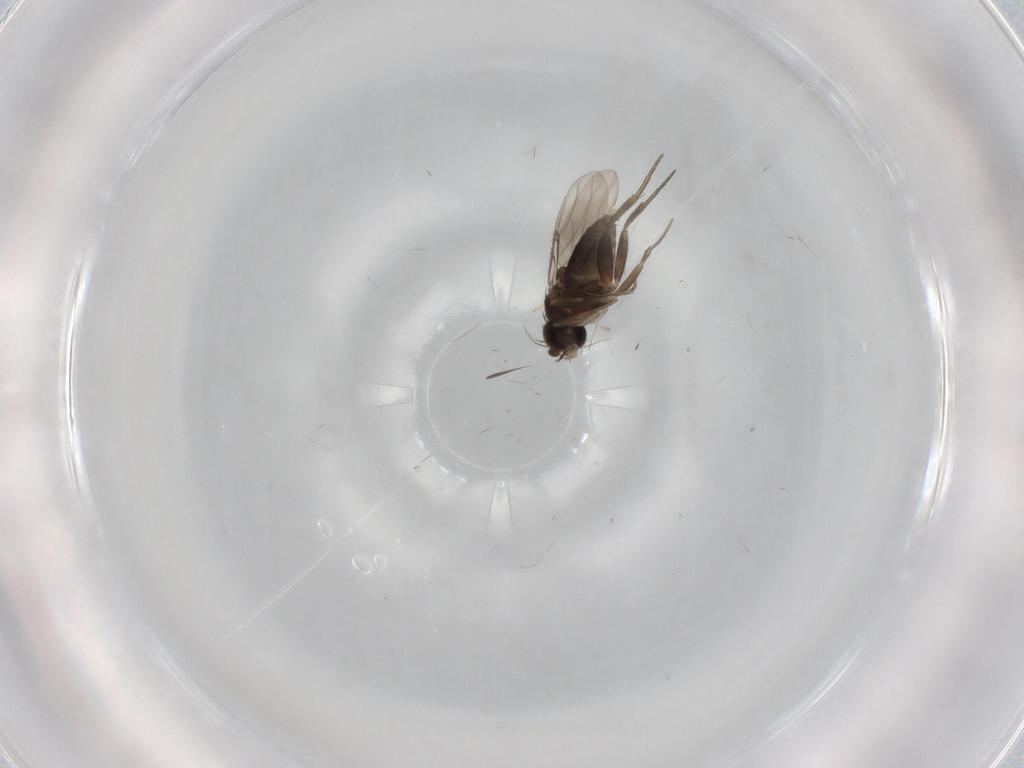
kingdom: Animalia
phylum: Arthropoda
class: Insecta
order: Diptera
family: Phoridae
